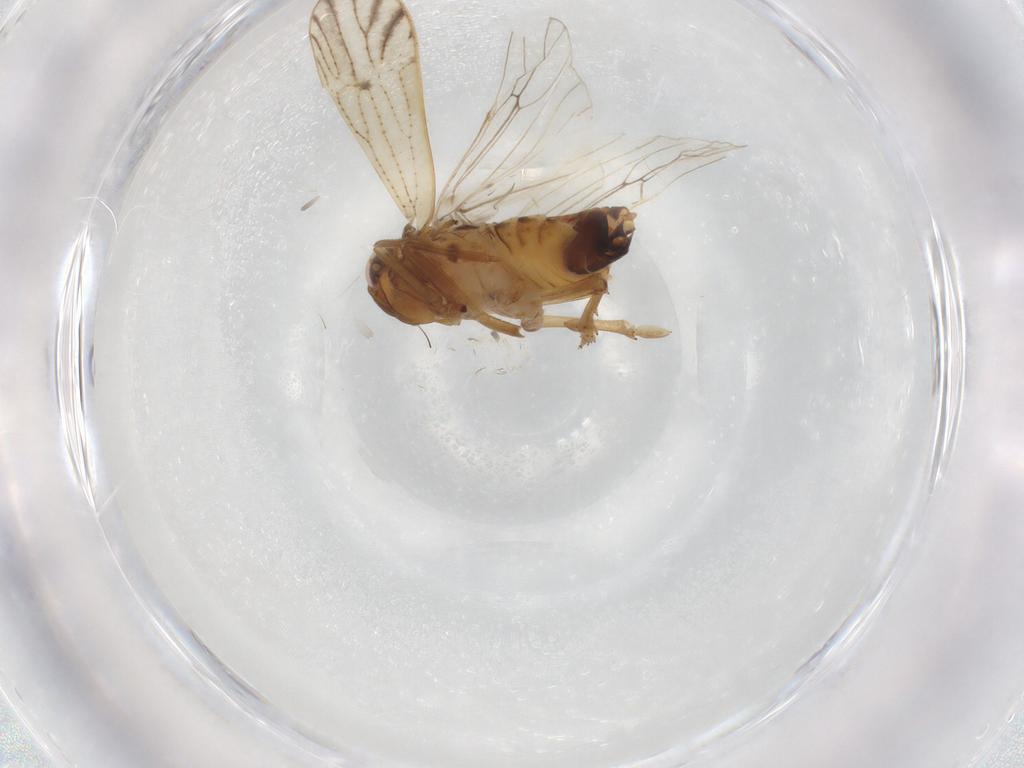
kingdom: Animalia
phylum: Arthropoda
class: Insecta
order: Hemiptera
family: Delphacidae
